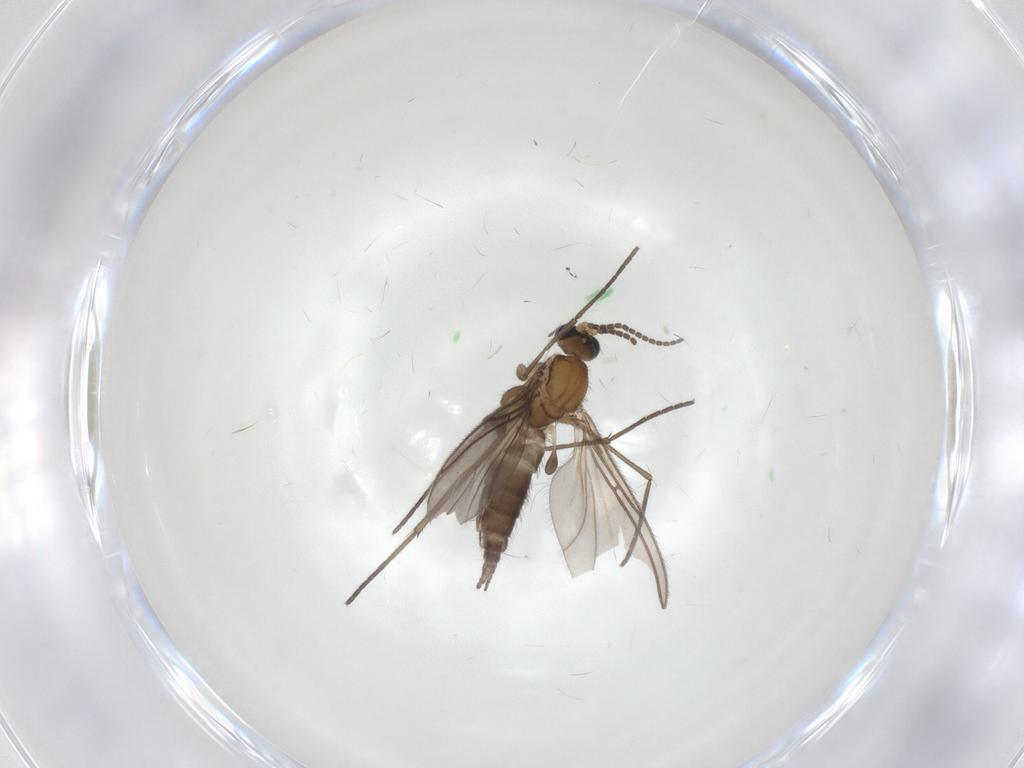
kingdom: Animalia
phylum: Arthropoda
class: Insecta
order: Diptera
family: Sciaridae
